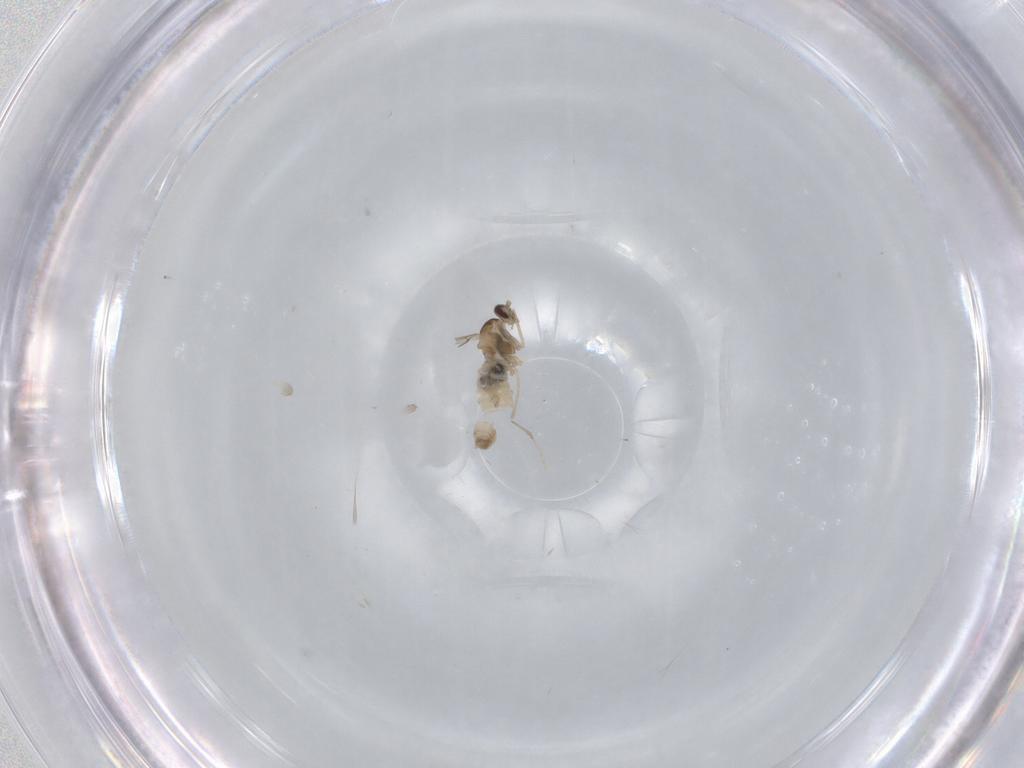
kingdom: Animalia
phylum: Arthropoda
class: Insecta
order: Diptera
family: Cecidomyiidae
